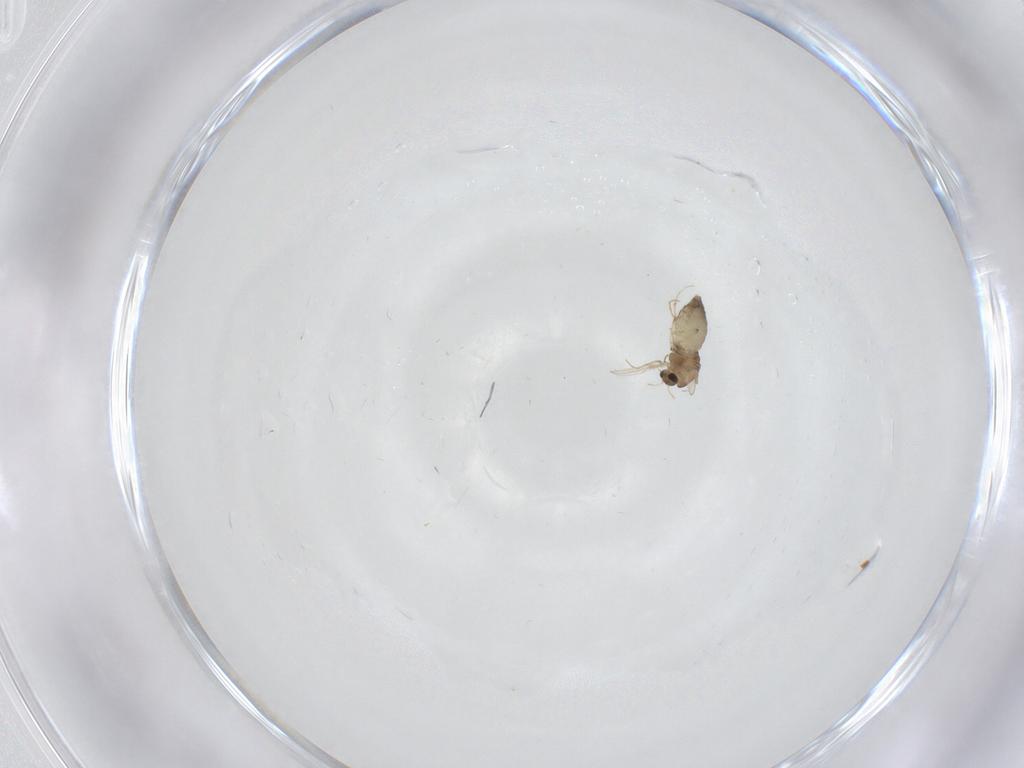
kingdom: Animalia
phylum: Arthropoda
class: Insecta
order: Diptera
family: Chironomidae
